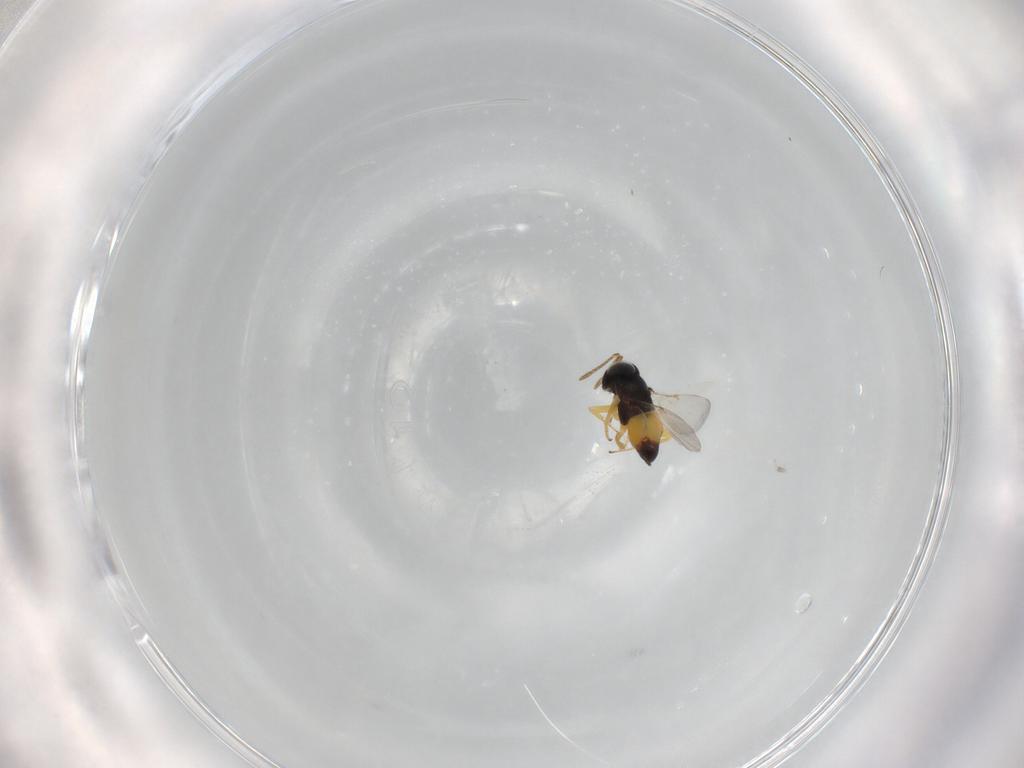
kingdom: Animalia
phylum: Arthropoda
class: Insecta
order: Hymenoptera
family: Encyrtidae
